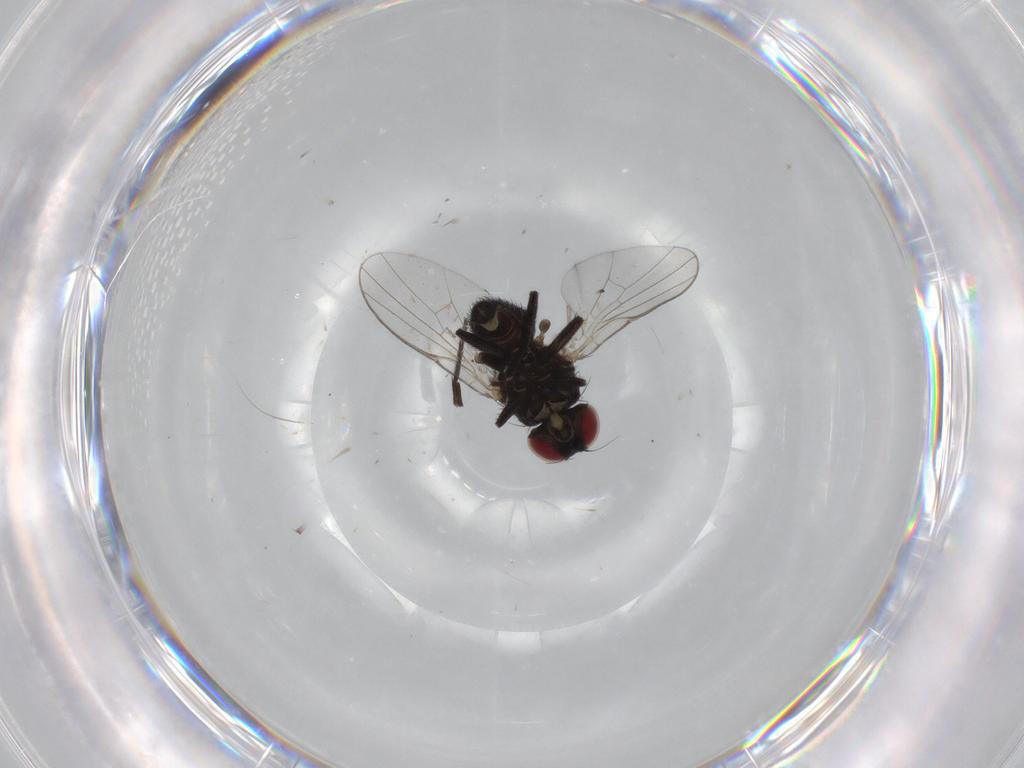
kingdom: Animalia
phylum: Arthropoda
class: Insecta
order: Diptera
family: Agromyzidae
